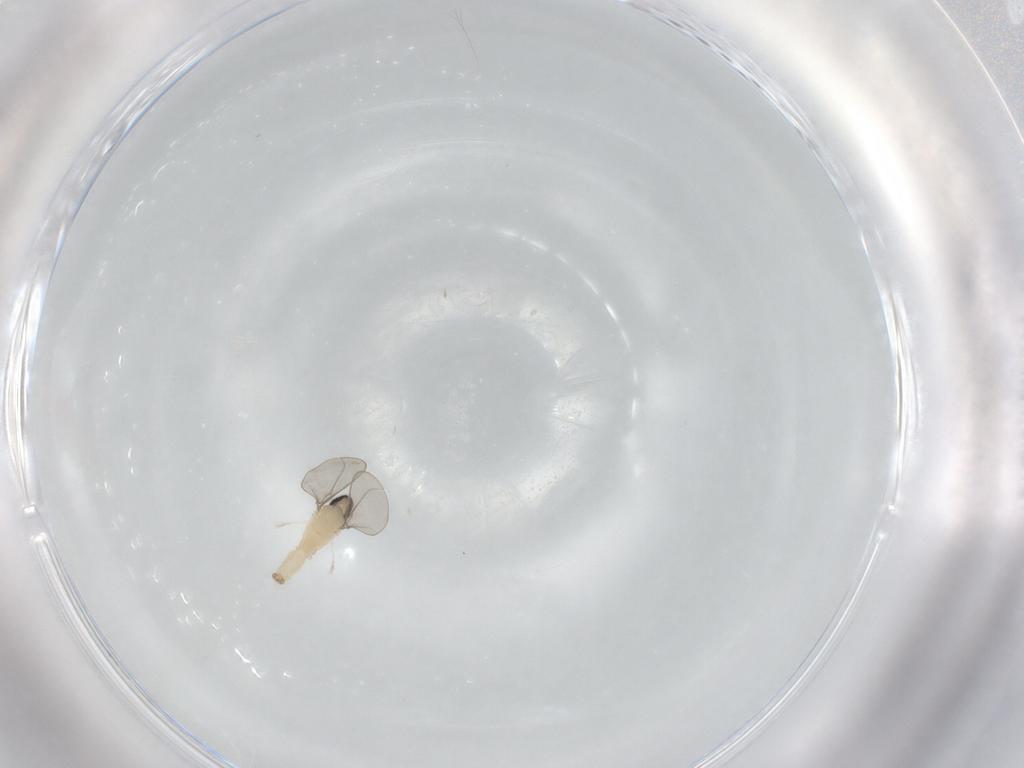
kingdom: Animalia
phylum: Arthropoda
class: Insecta
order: Diptera
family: Cecidomyiidae
